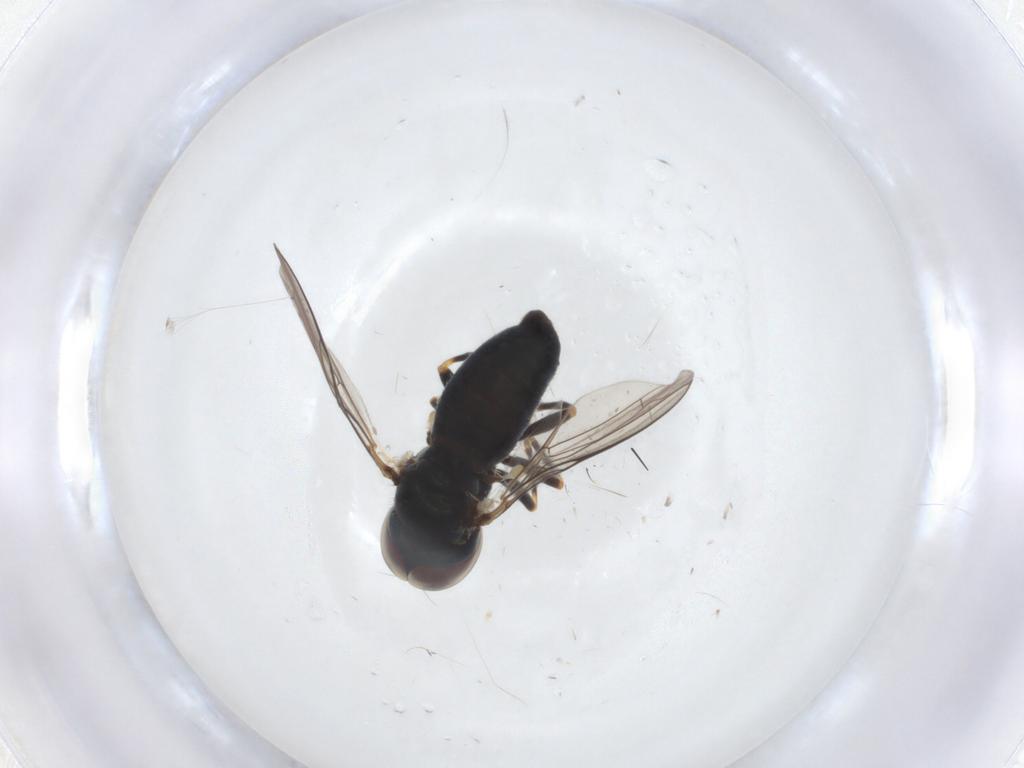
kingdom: Animalia
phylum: Arthropoda
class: Insecta
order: Diptera
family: Pipunculidae
